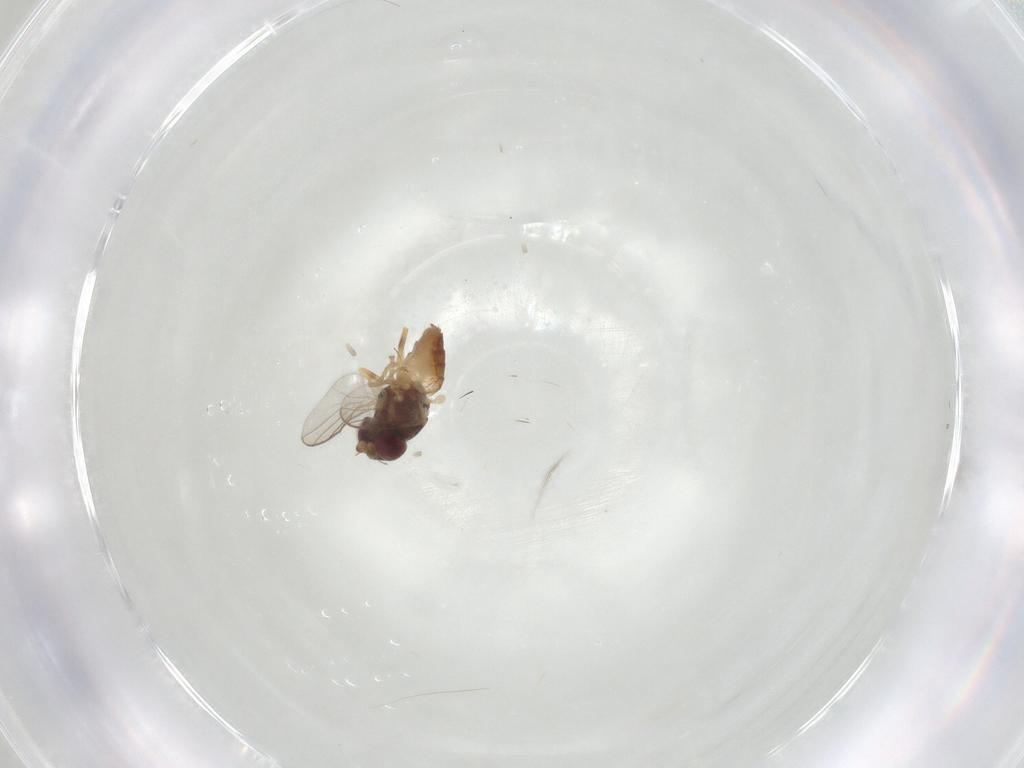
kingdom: Animalia
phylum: Arthropoda
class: Insecta
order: Diptera
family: Chloropidae
